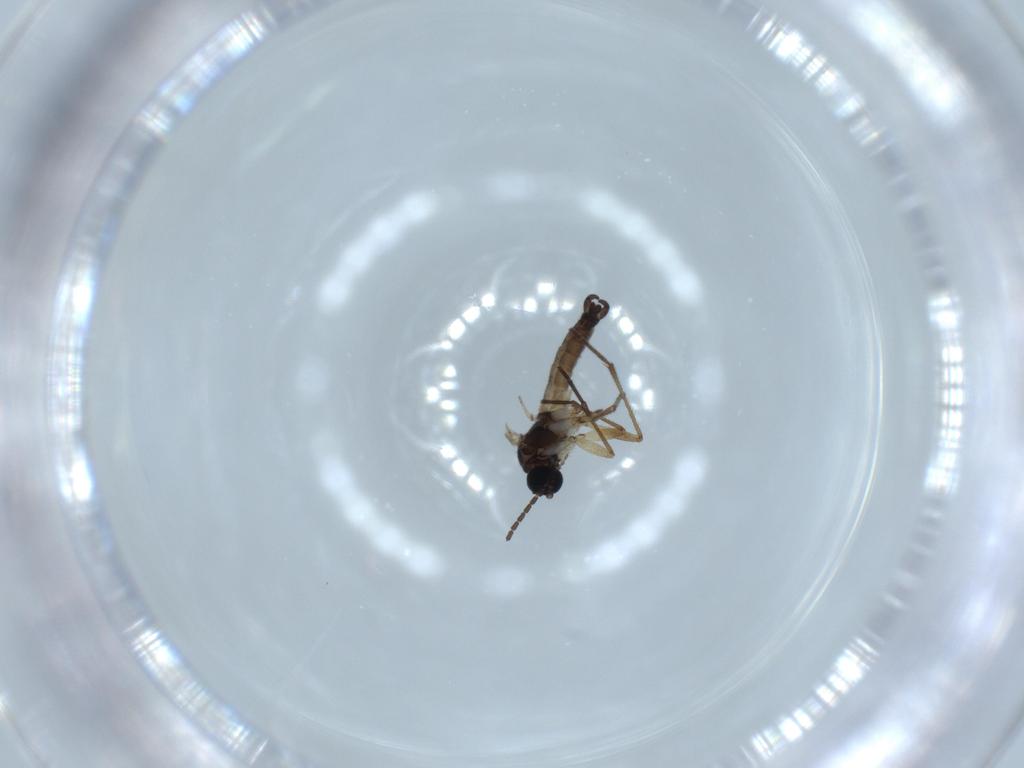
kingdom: Animalia
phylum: Arthropoda
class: Insecta
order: Diptera
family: Sciaridae
